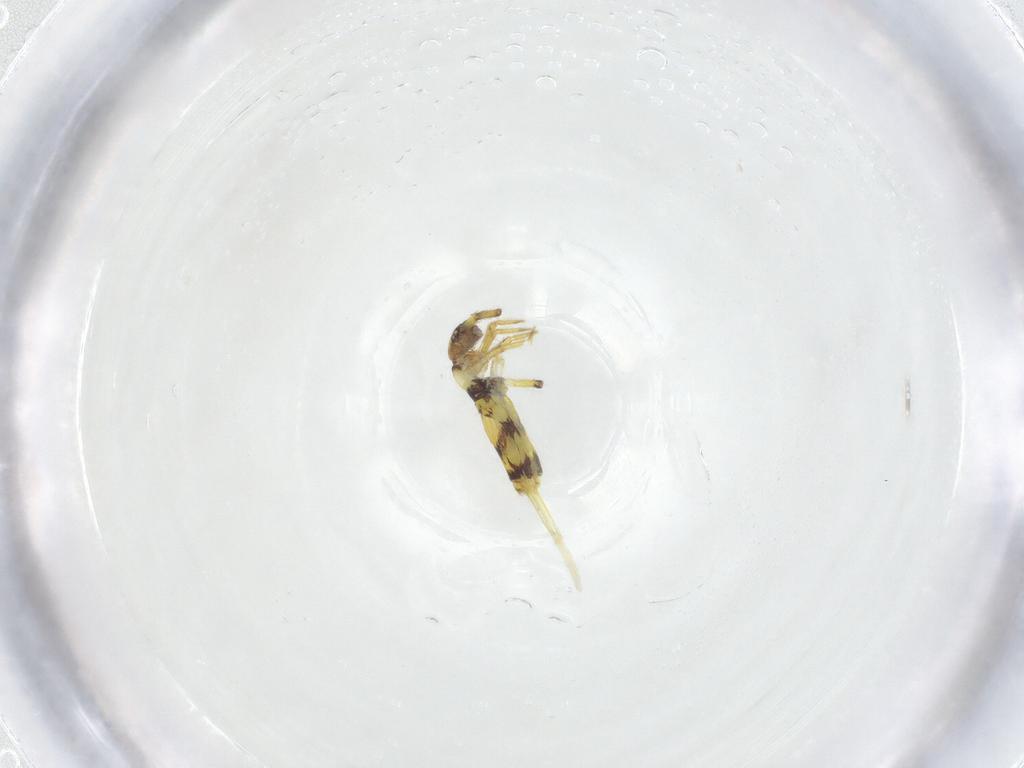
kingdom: Animalia
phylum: Arthropoda
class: Collembola
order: Entomobryomorpha
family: Entomobryidae
